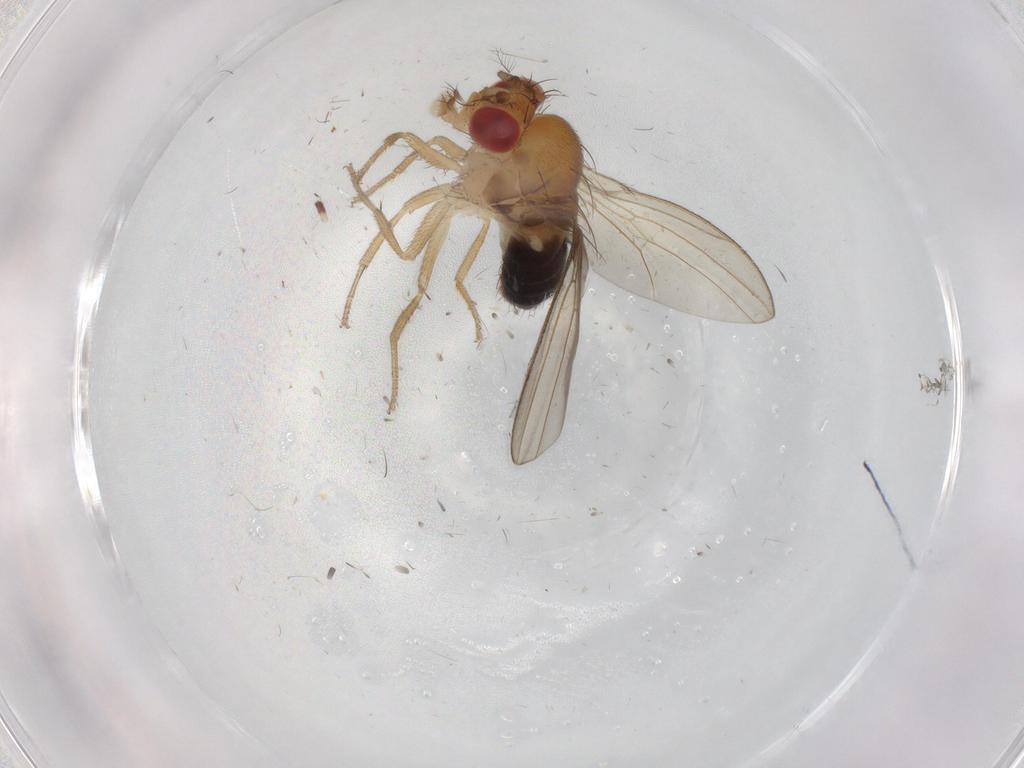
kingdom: Animalia
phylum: Arthropoda
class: Insecta
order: Diptera
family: Drosophilidae
